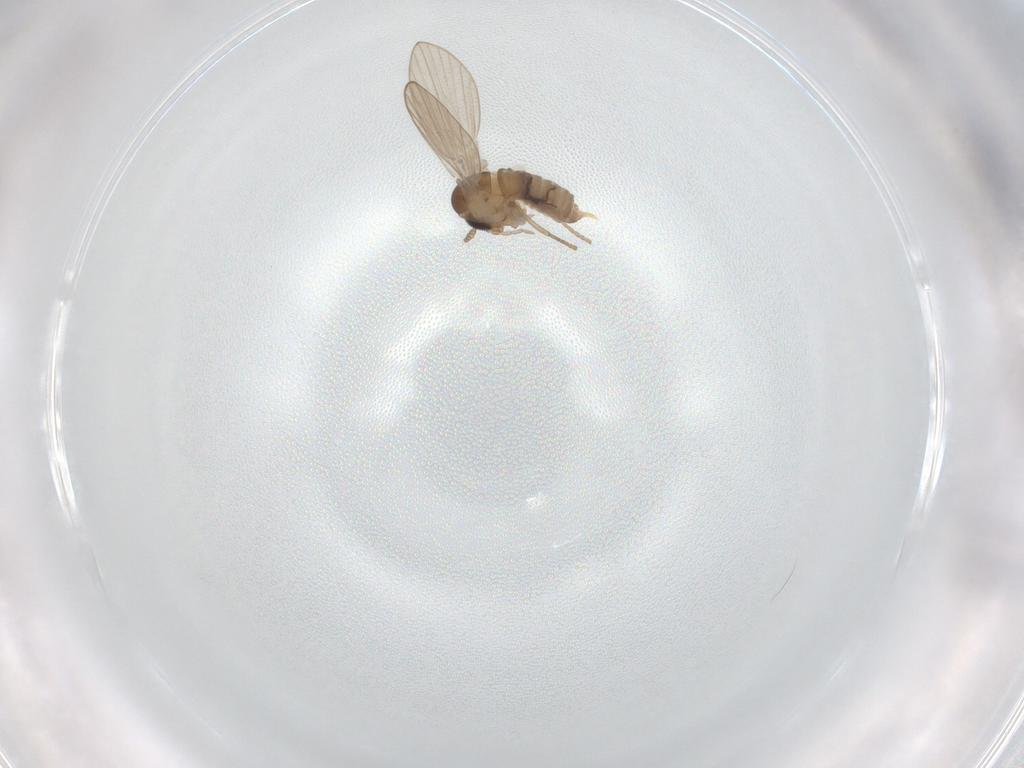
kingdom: Animalia
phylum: Arthropoda
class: Insecta
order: Diptera
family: Psychodidae
